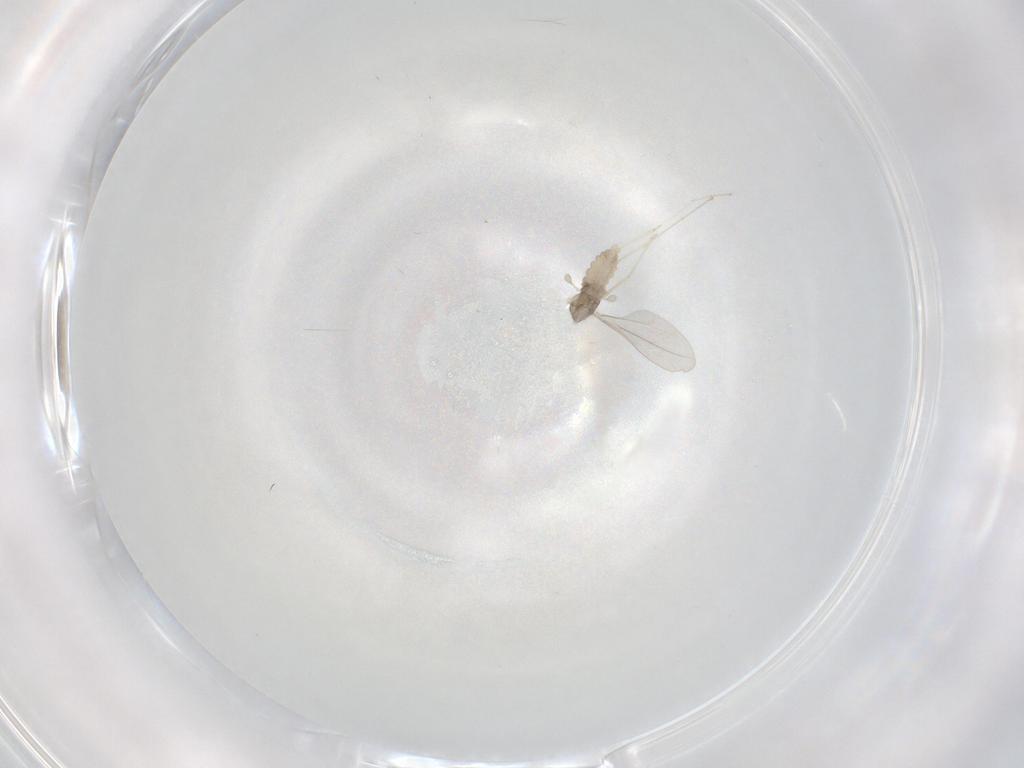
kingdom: Animalia
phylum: Arthropoda
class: Insecta
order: Diptera
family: Cecidomyiidae
